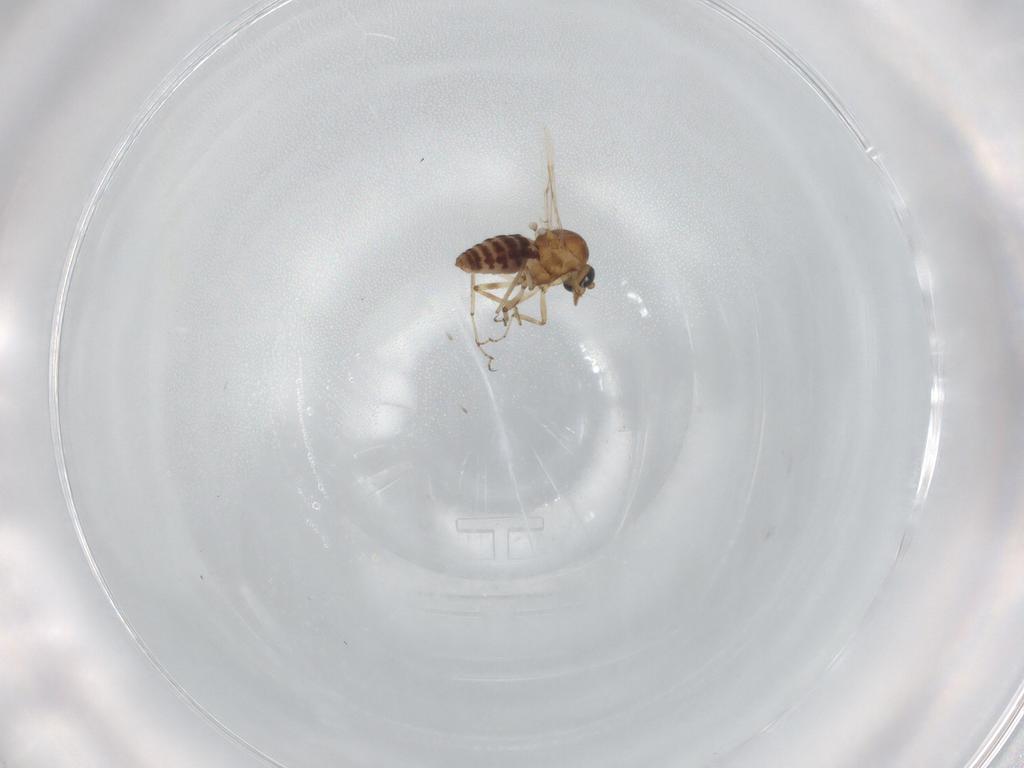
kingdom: Animalia
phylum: Arthropoda
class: Insecta
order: Diptera
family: Ceratopogonidae
